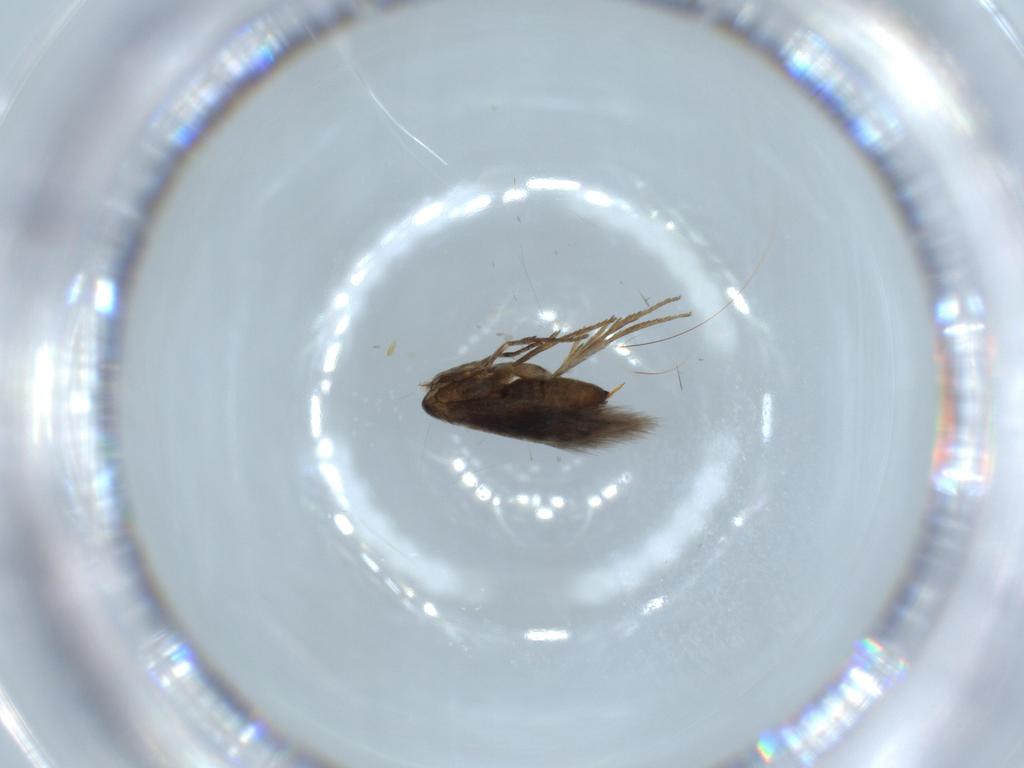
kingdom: Animalia
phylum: Arthropoda
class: Insecta
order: Lepidoptera
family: Heliozelidae
